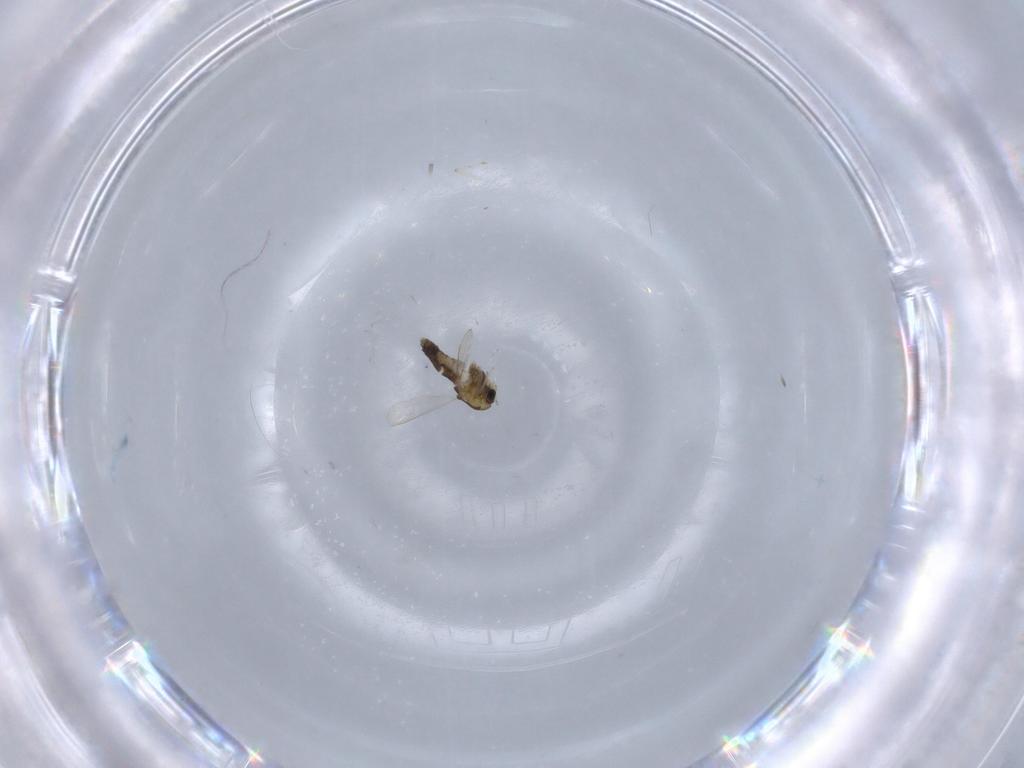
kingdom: Animalia
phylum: Arthropoda
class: Insecta
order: Diptera
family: Chironomidae
